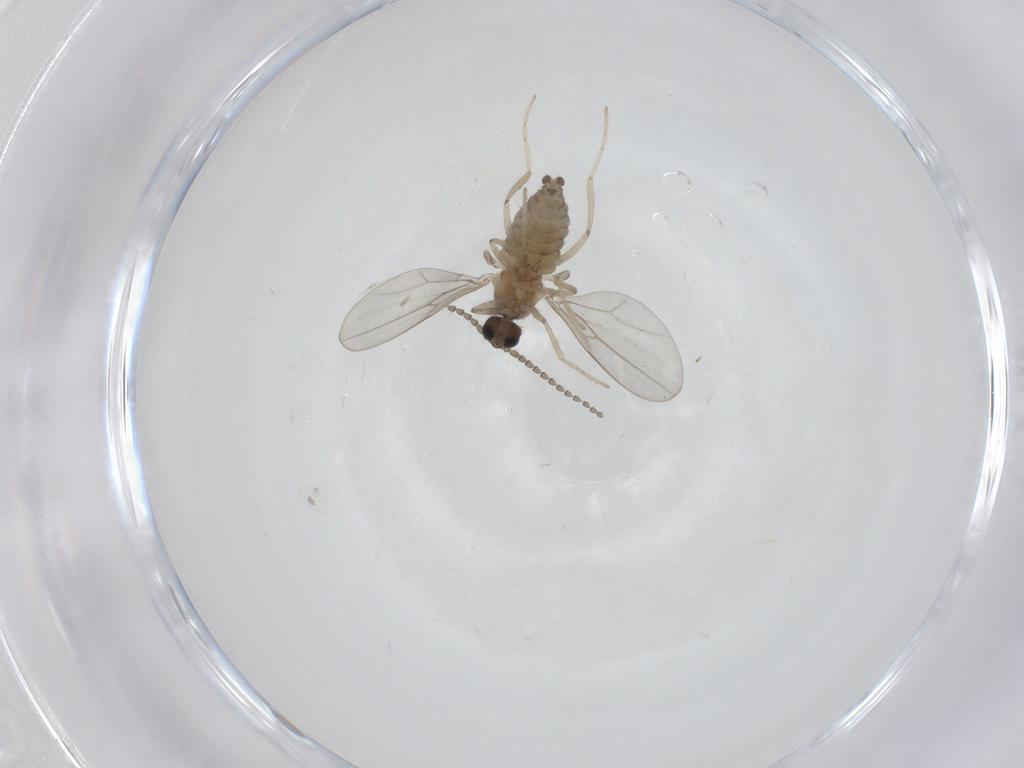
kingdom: Animalia
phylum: Arthropoda
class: Insecta
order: Diptera
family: Cecidomyiidae
